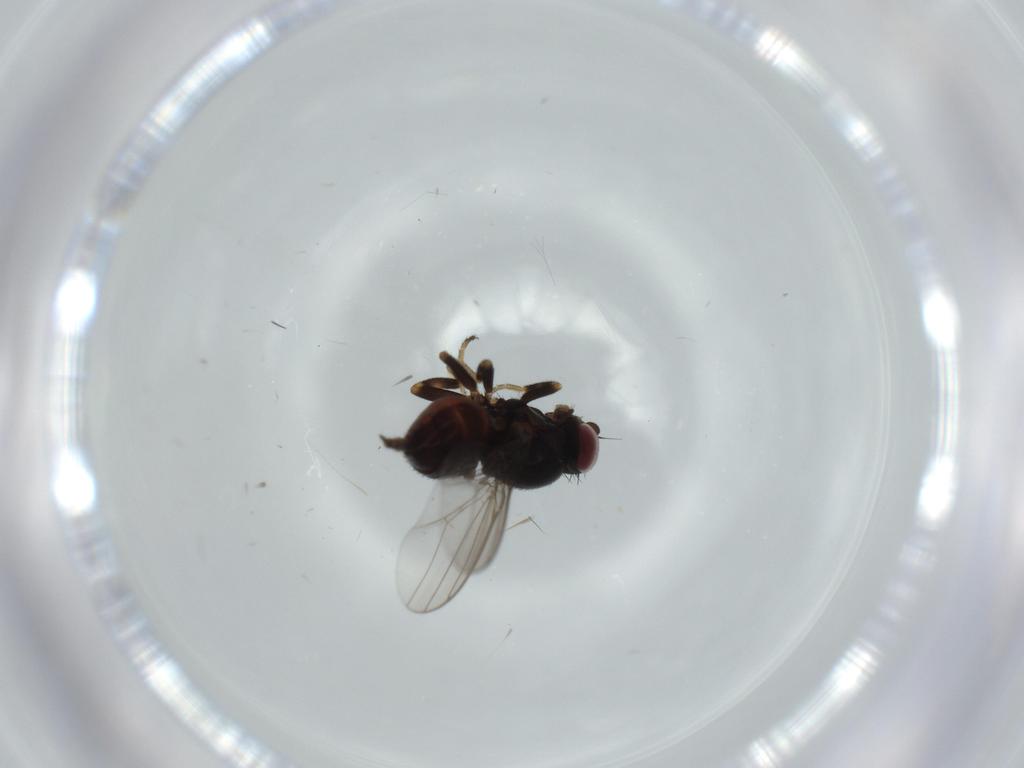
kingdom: Animalia
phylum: Arthropoda
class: Insecta
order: Diptera
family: Chloropidae
